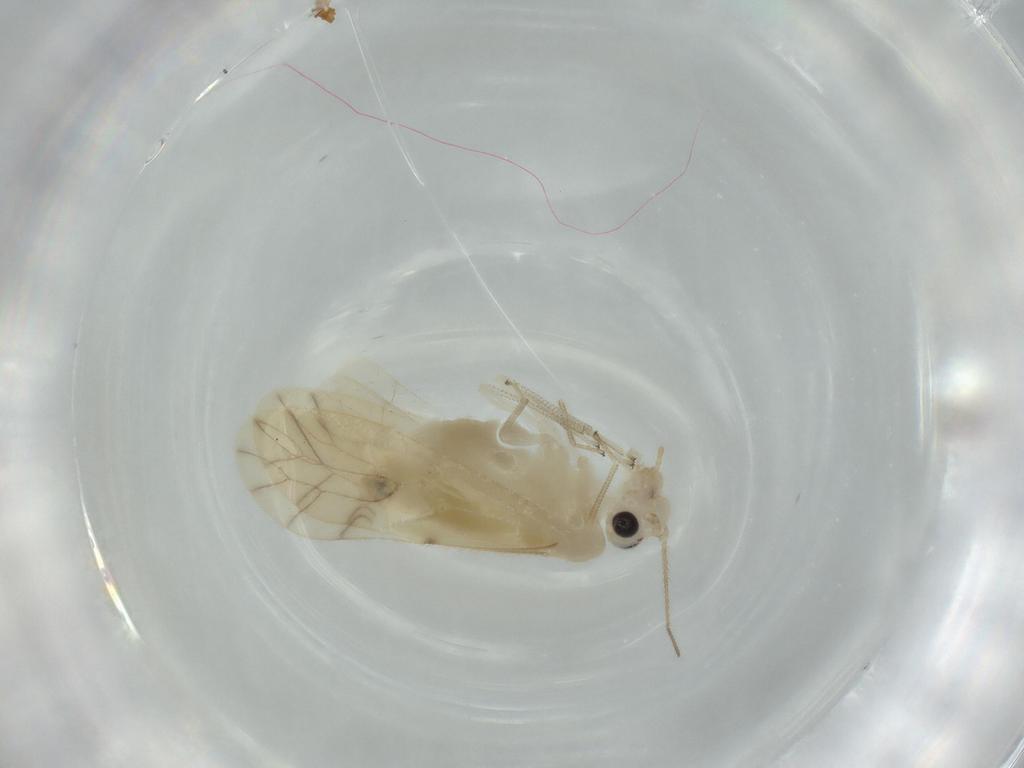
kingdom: Animalia
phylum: Arthropoda
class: Insecta
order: Psocodea
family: Caeciliusidae
